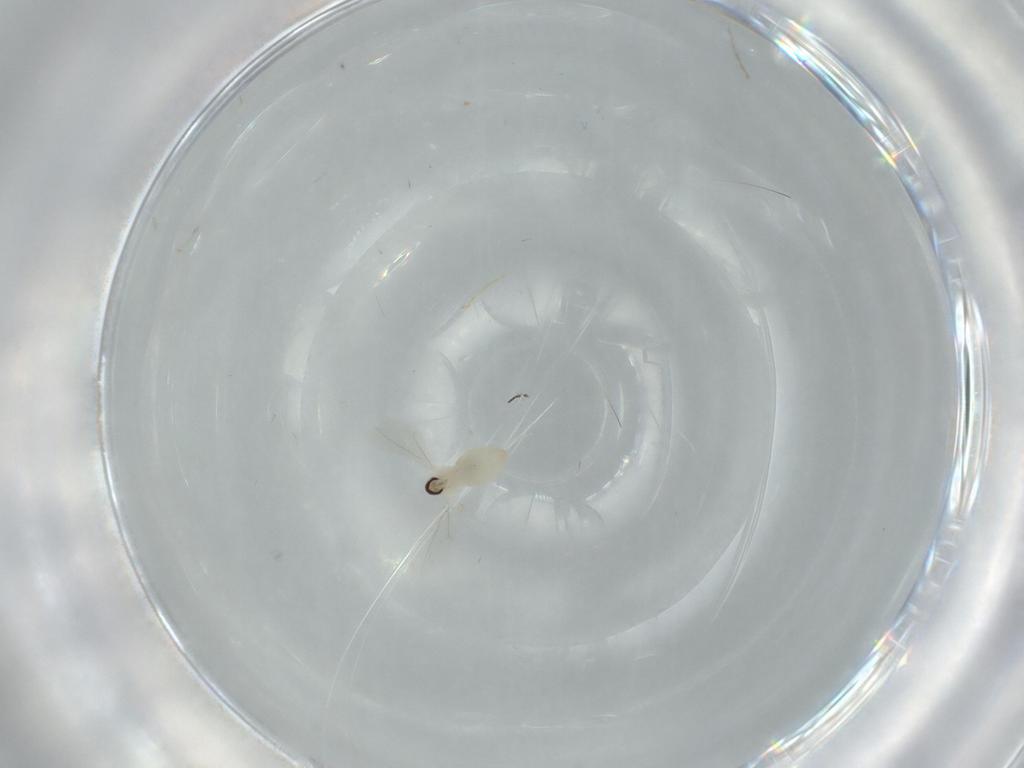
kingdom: Animalia
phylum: Arthropoda
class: Insecta
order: Diptera
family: Cecidomyiidae
